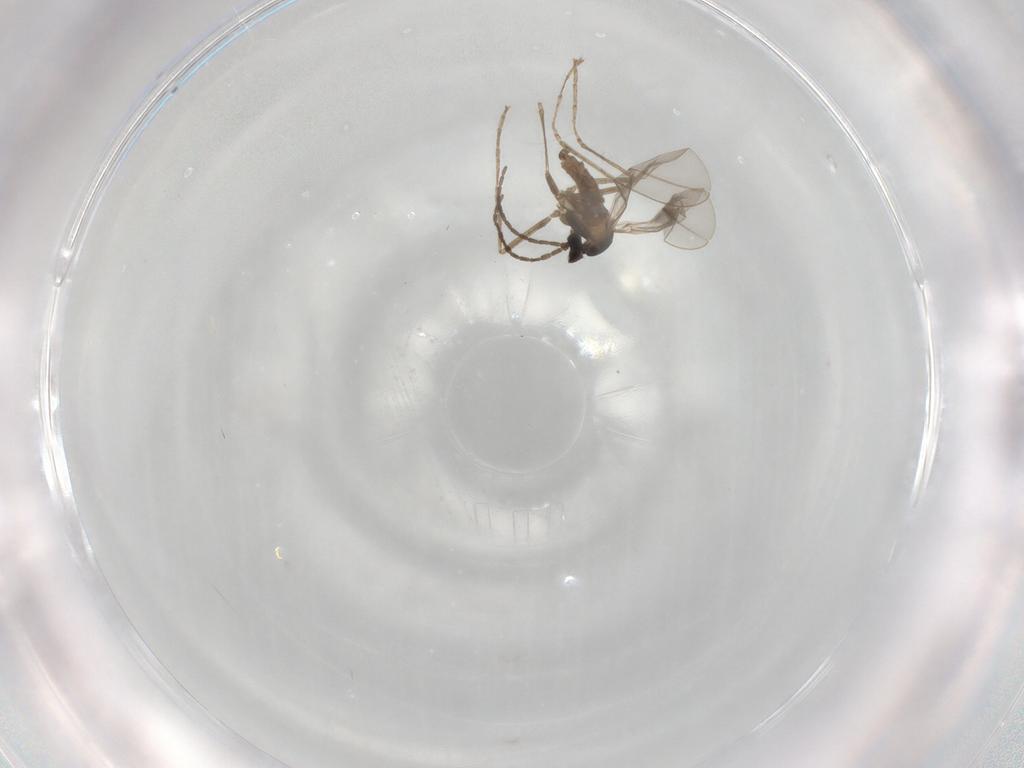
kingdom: Animalia
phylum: Arthropoda
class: Insecta
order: Diptera
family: Cecidomyiidae
